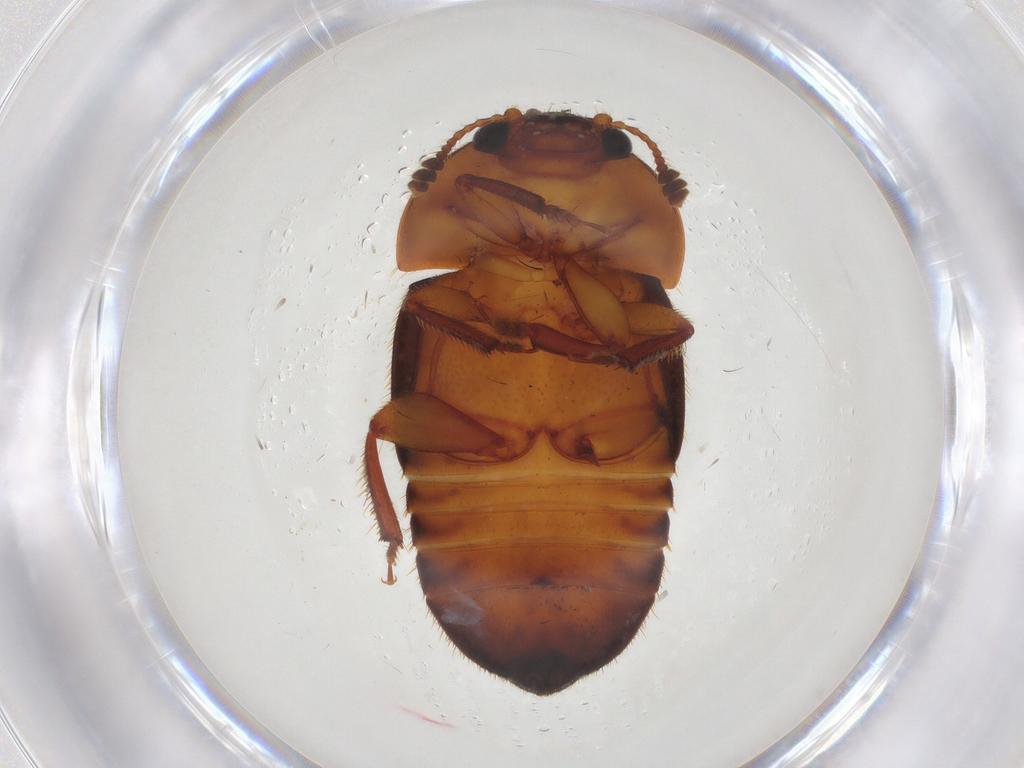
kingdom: Animalia
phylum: Arthropoda
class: Insecta
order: Coleoptera
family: Nitidulidae
